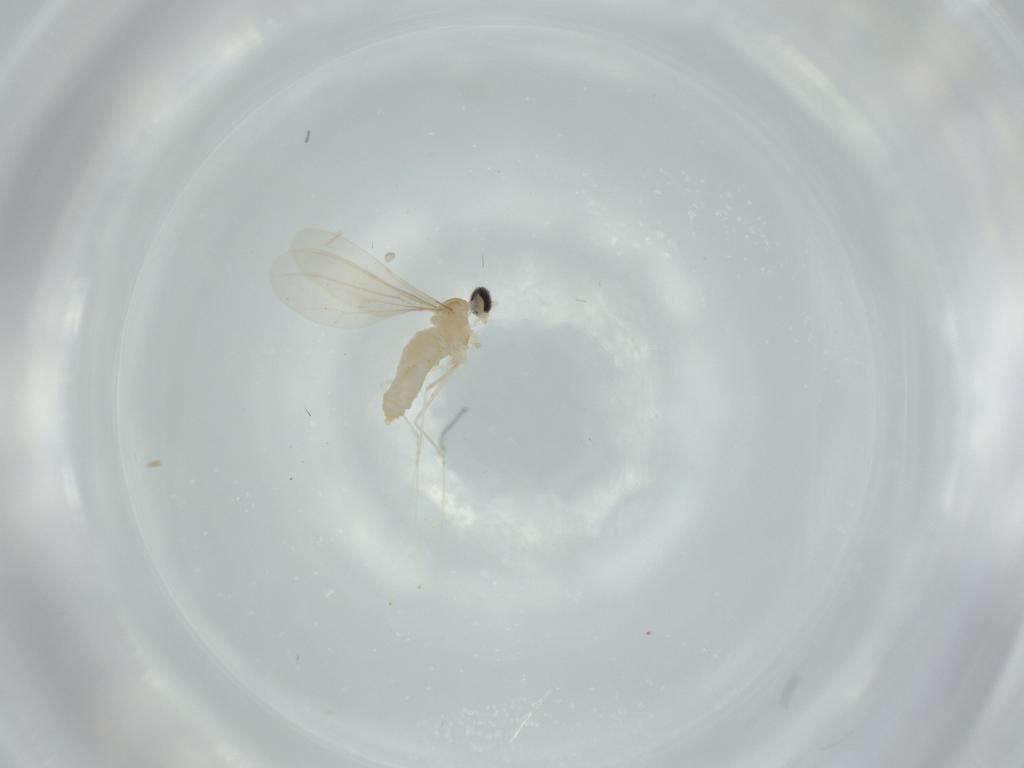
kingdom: Animalia
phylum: Arthropoda
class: Insecta
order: Diptera
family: Cecidomyiidae
